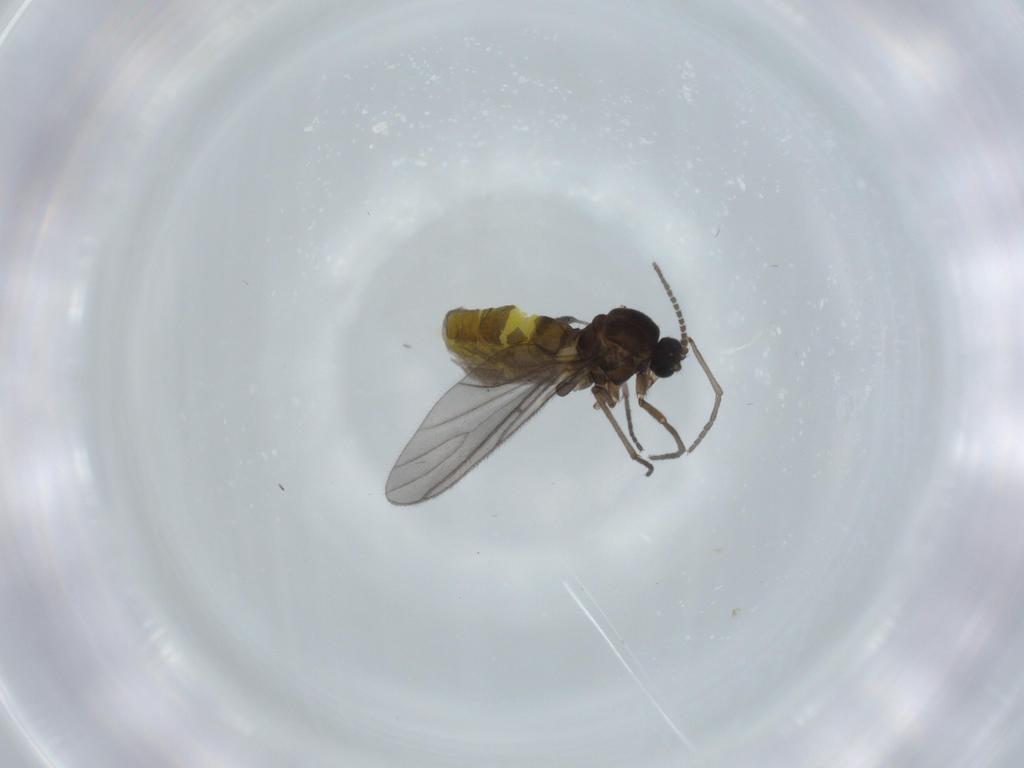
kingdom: Animalia
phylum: Arthropoda
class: Insecta
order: Diptera
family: Sciaridae
